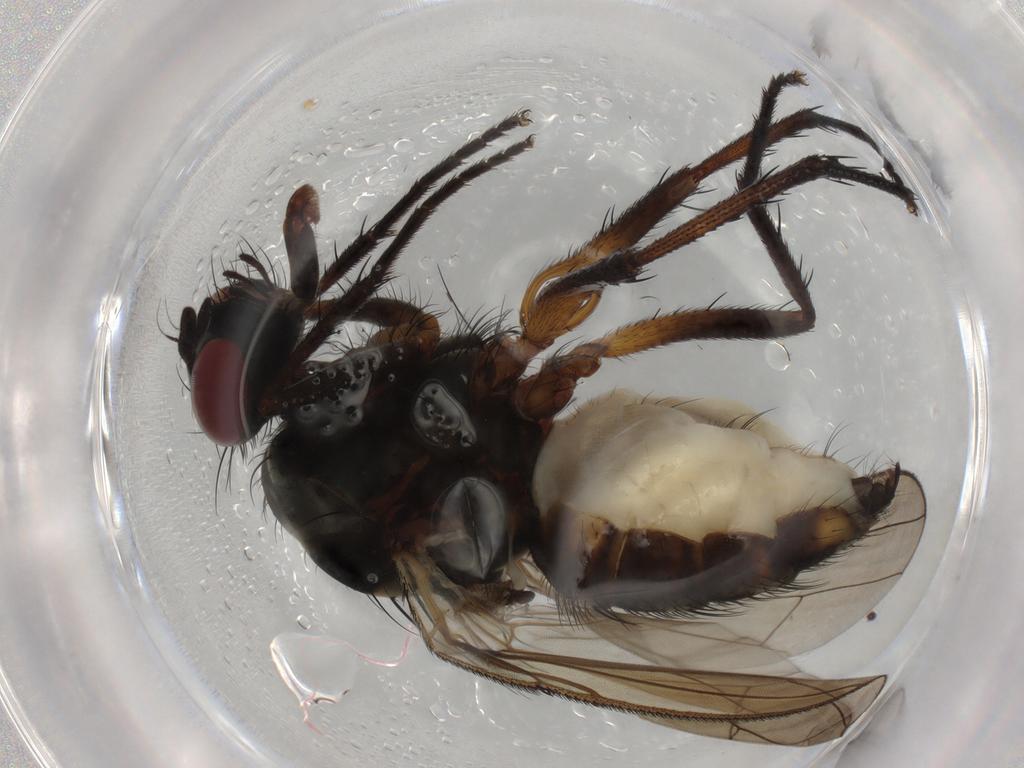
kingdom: Animalia
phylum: Arthropoda
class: Insecta
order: Diptera
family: Anthomyiidae
